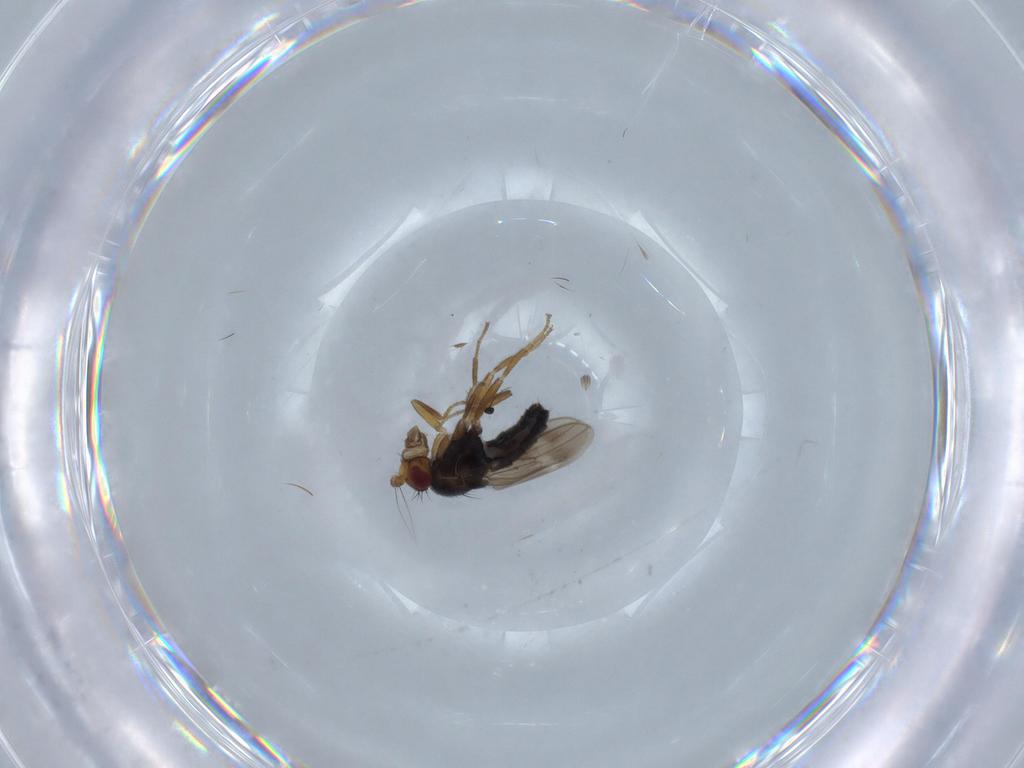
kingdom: Animalia
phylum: Arthropoda
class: Insecta
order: Diptera
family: Sphaeroceridae
